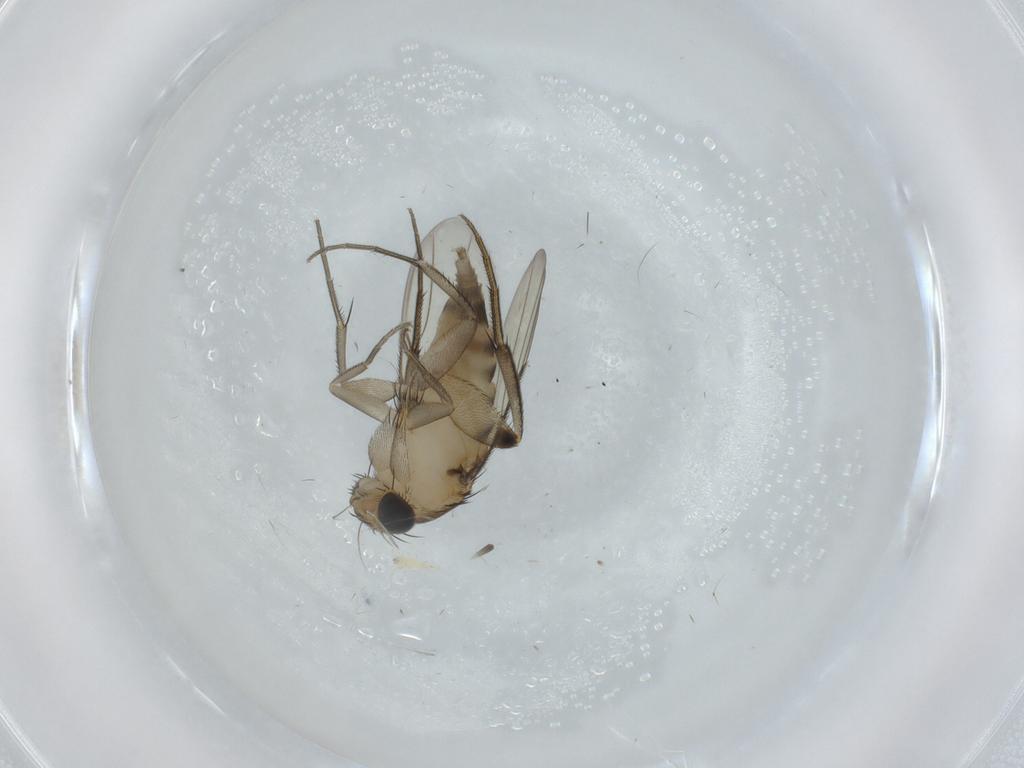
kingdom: Animalia
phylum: Arthropoda
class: Insecta
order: Diptera
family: Phoridae
